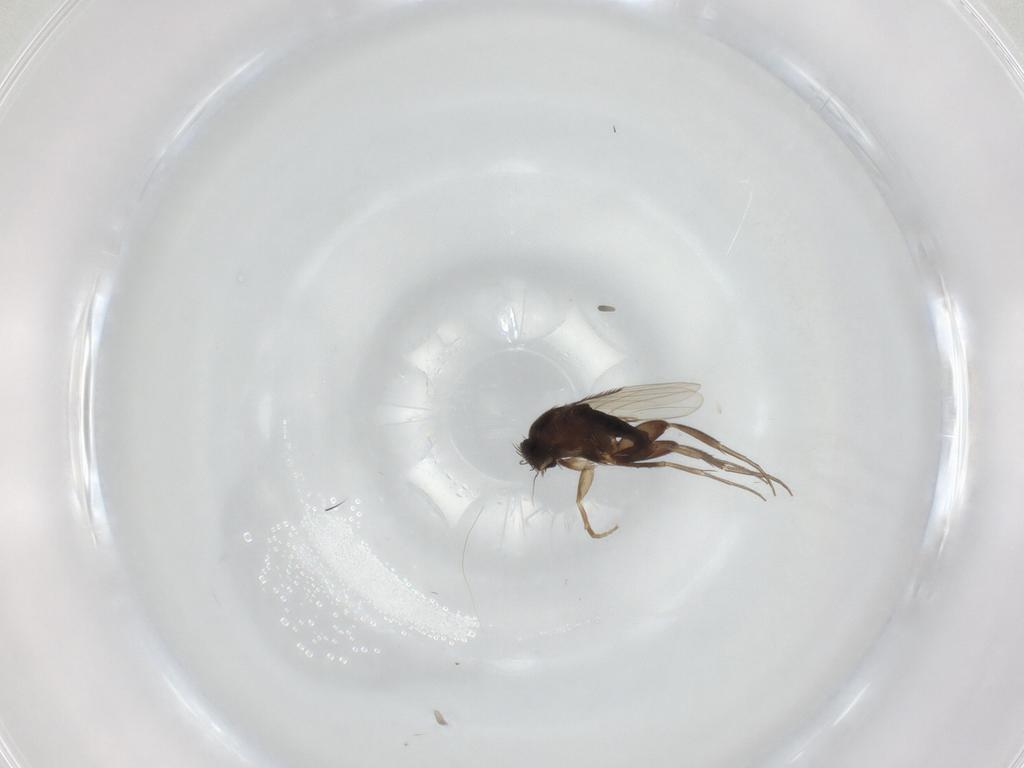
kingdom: Animalia
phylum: Arthropoda
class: Insecta
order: Diptera
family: Phoridae
